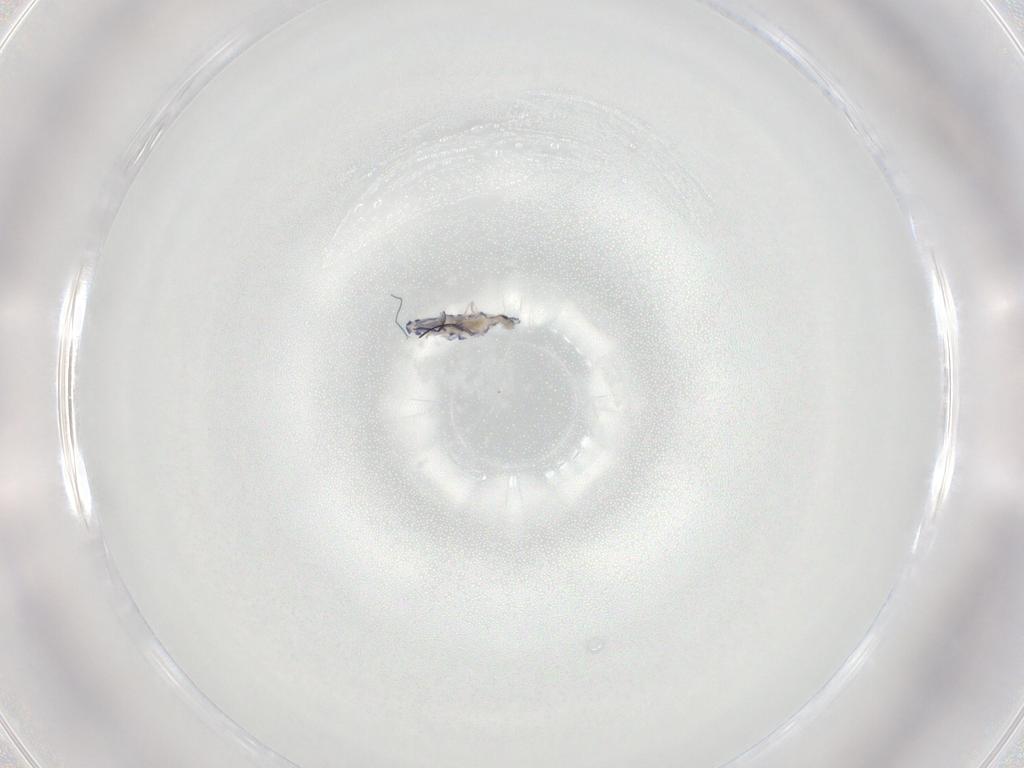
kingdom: Animalia
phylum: Arthropoda
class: Collembola
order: Entomobryomorpha
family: Entomobryidae
